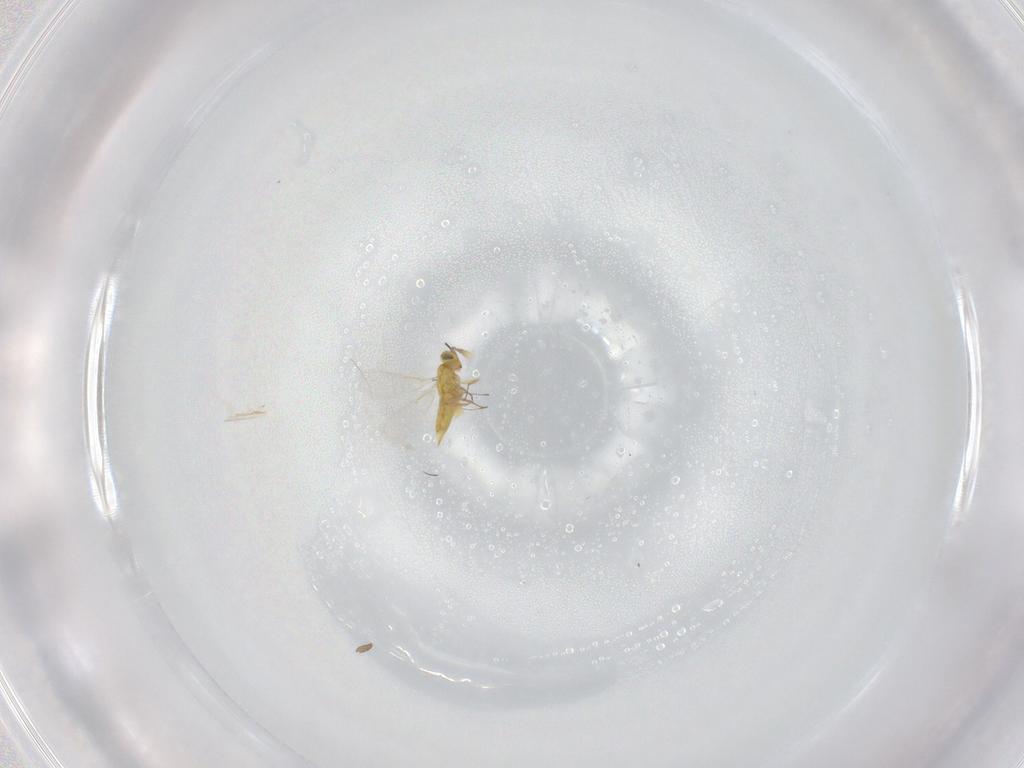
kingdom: Animalia
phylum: Arthropoda
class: Insecta
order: Hymenoptera
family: Aphelinidae
